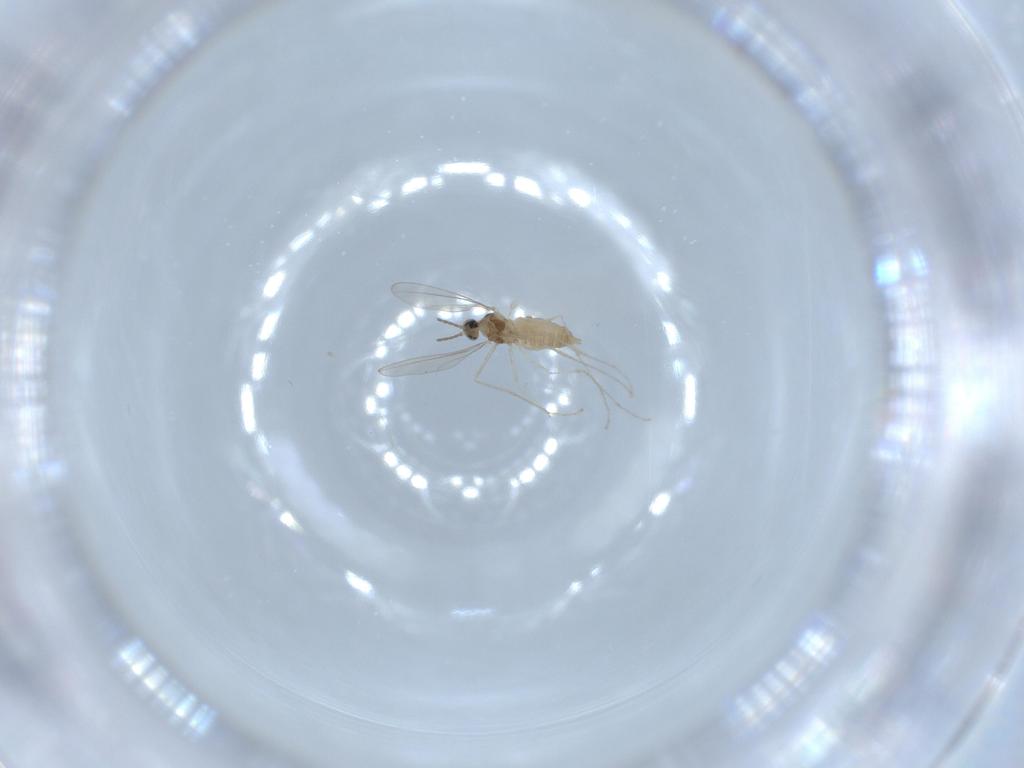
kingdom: Animalia
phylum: Arthropoda
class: Insecta
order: Diptera
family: Cecidomyiidae
